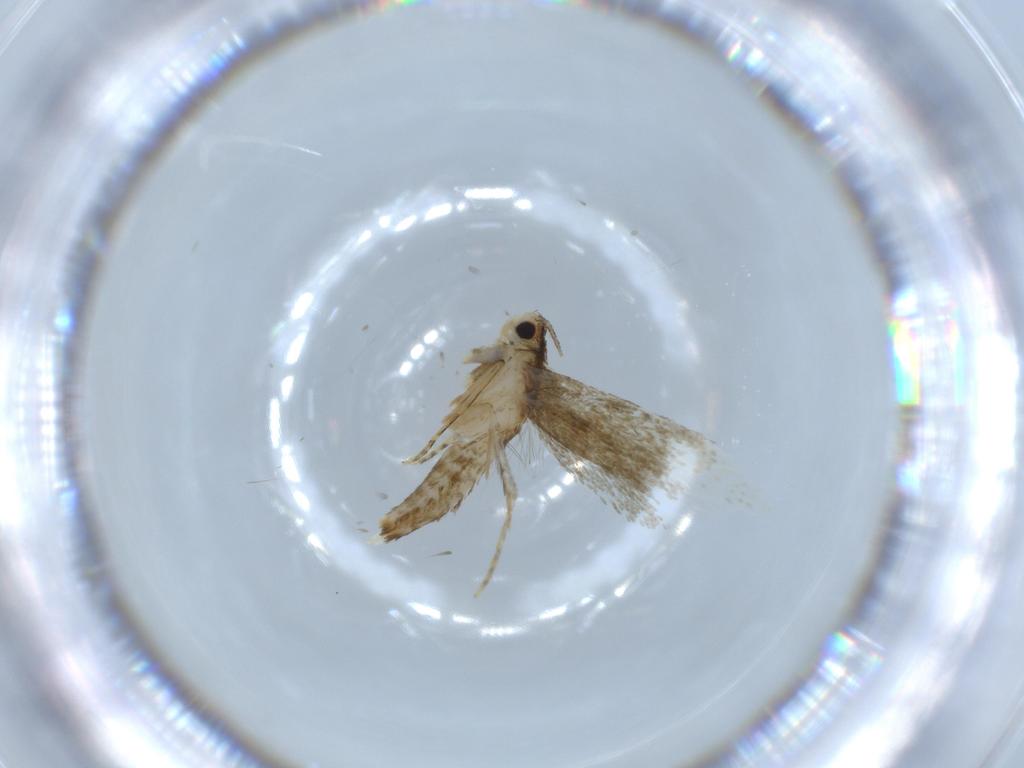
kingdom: Animalia
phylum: Arthropoda
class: Insecta
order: Lepidoptera
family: Tineidae
